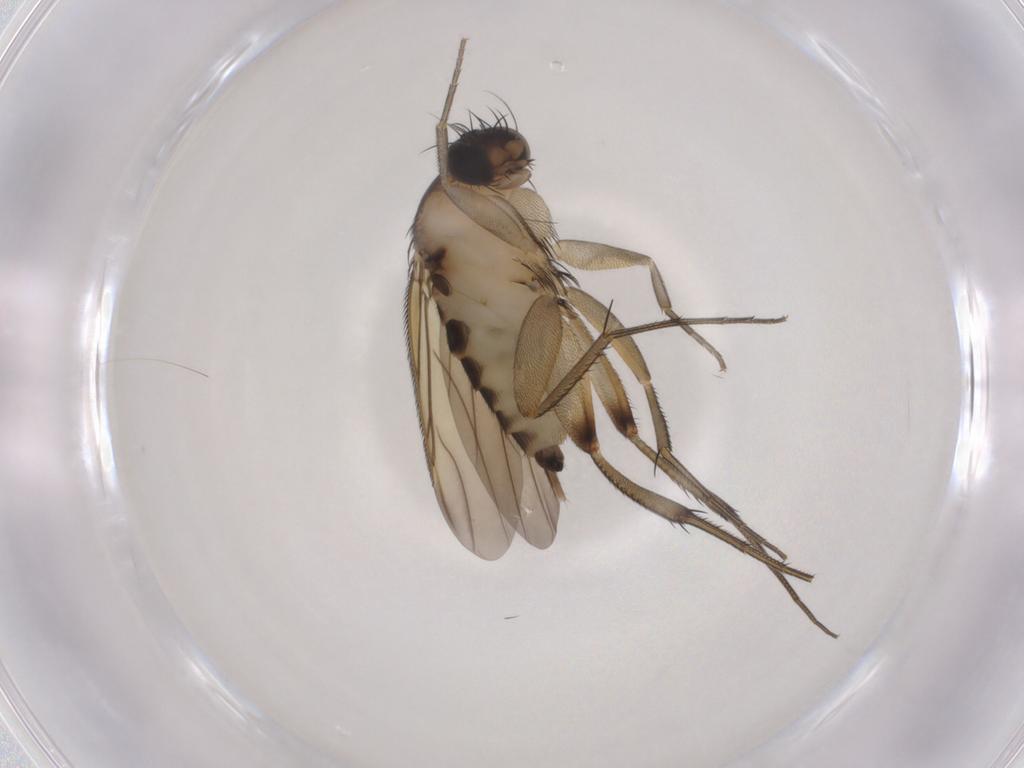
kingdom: Animalia
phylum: Arthropoda
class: Insecta
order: Diptera
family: Phoridae
